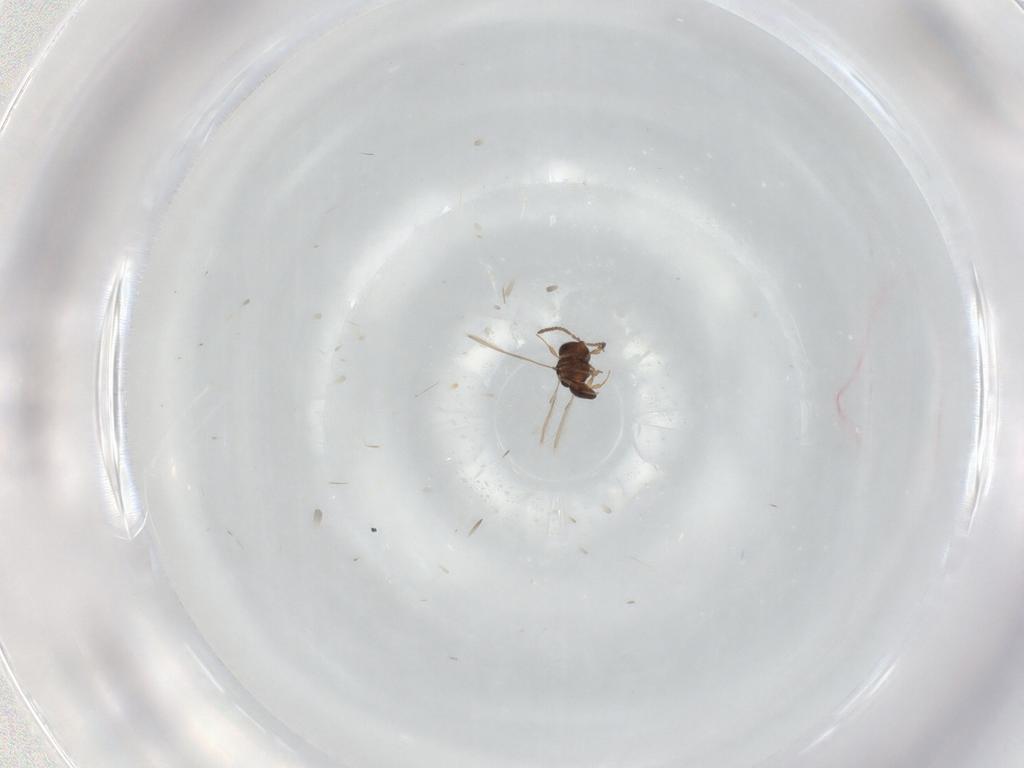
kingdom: Animalia
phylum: Arthropoda
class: Insecta
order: Hymenoptera
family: Scelionidae
